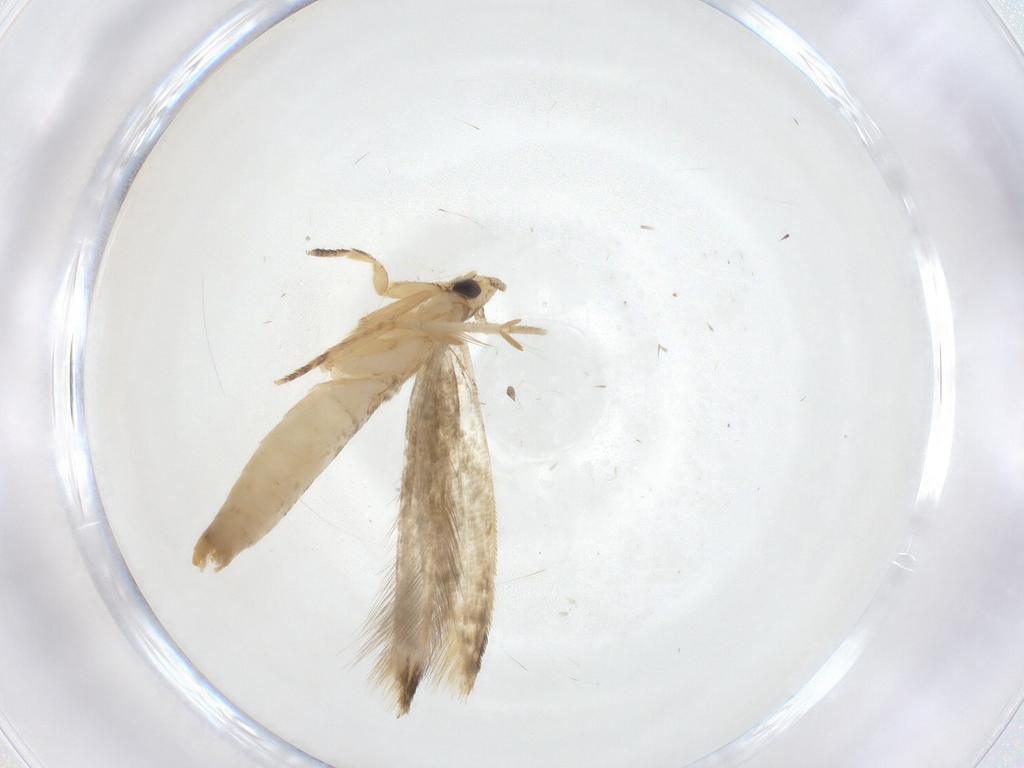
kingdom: Animalia
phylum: Arthropoda
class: Insecta
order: Lepidoptera
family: Tineidae
